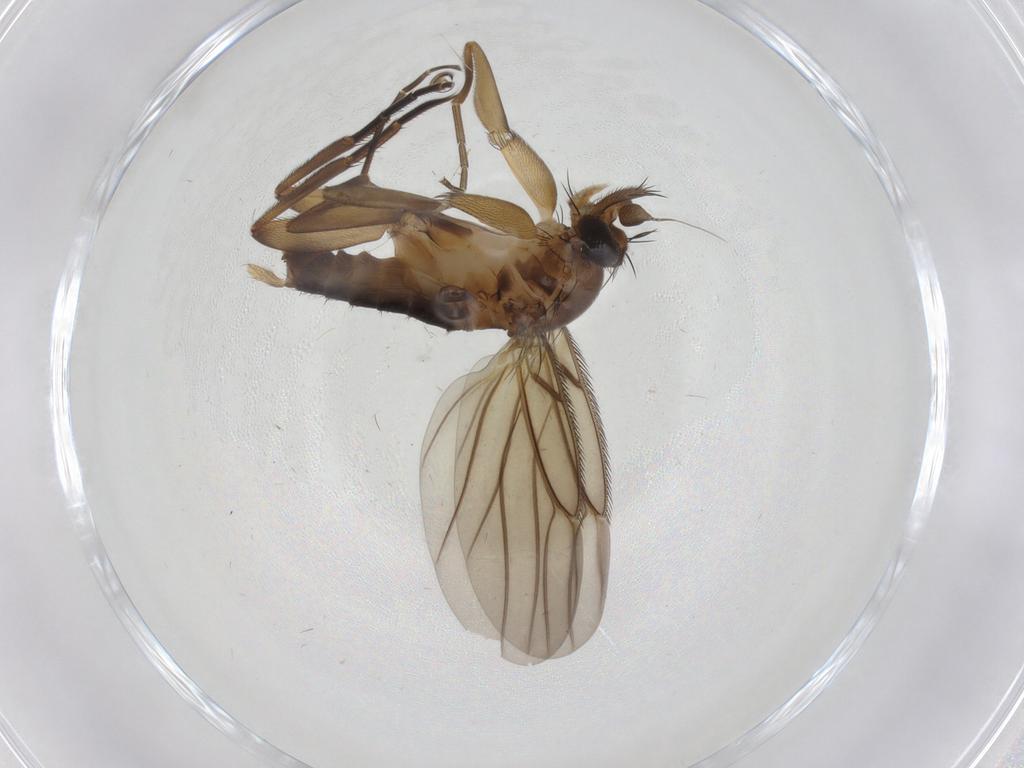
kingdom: Animalia
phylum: Arthropoda
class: Insecta
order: Diptera
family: Phoridae
